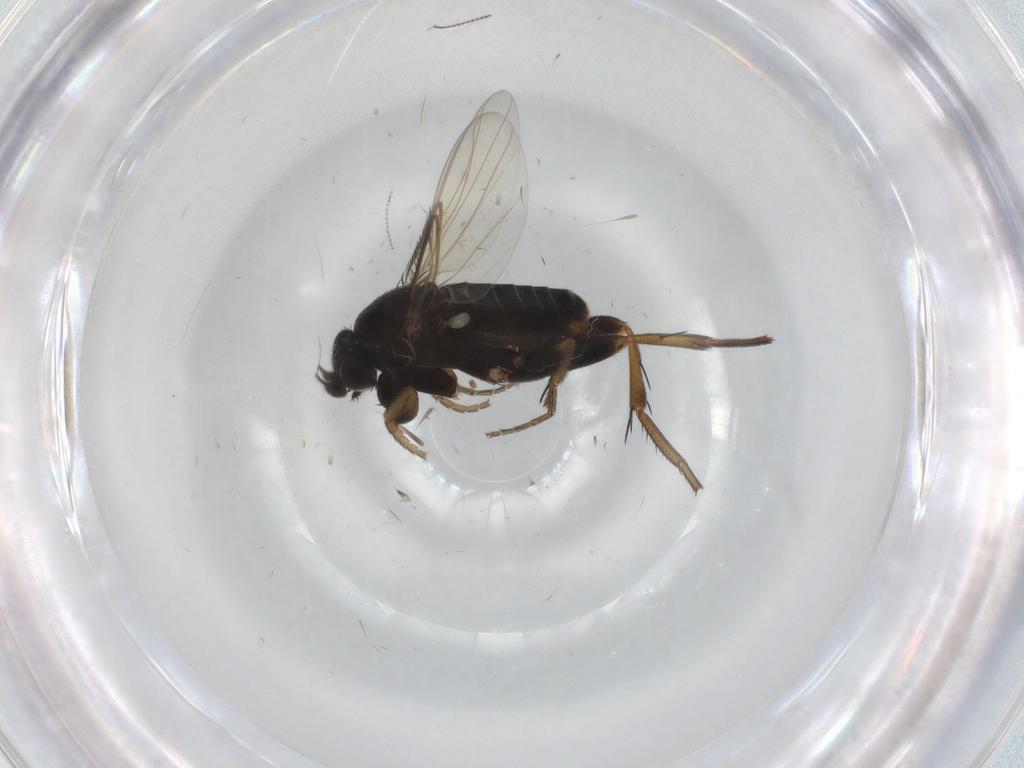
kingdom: Animalia
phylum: Arthropoda
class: Insecta
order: Diptera
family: Phoridae
